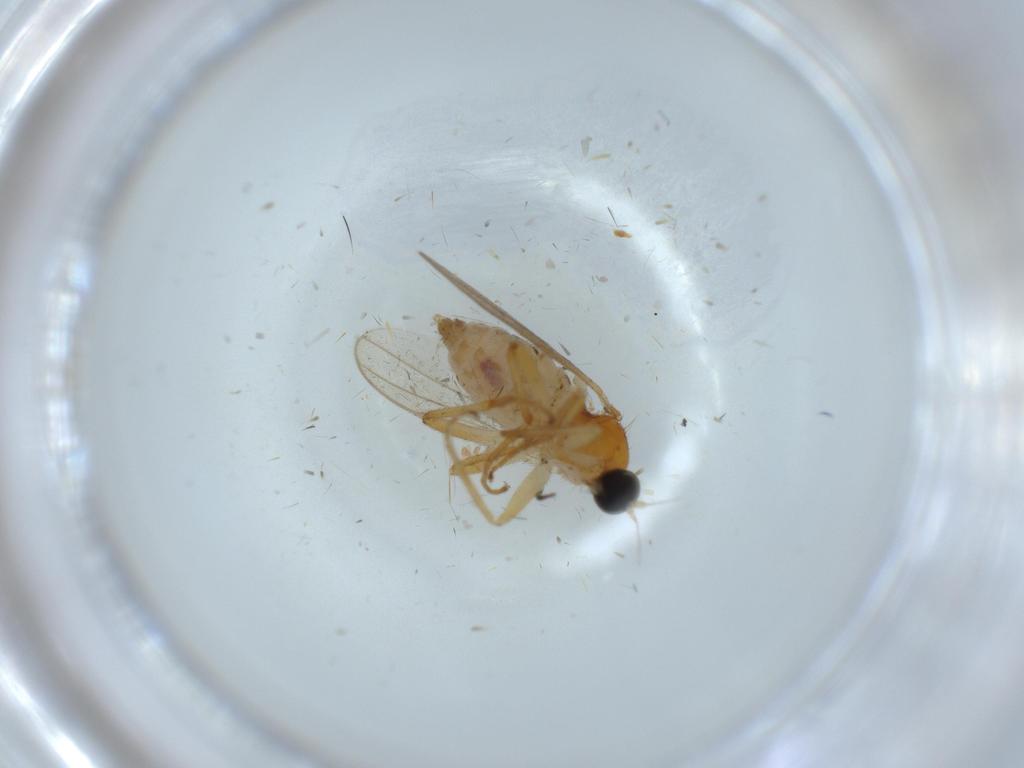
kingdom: Animalia
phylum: Arthropoda
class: Insecta
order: Diptera
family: Hybotidae
